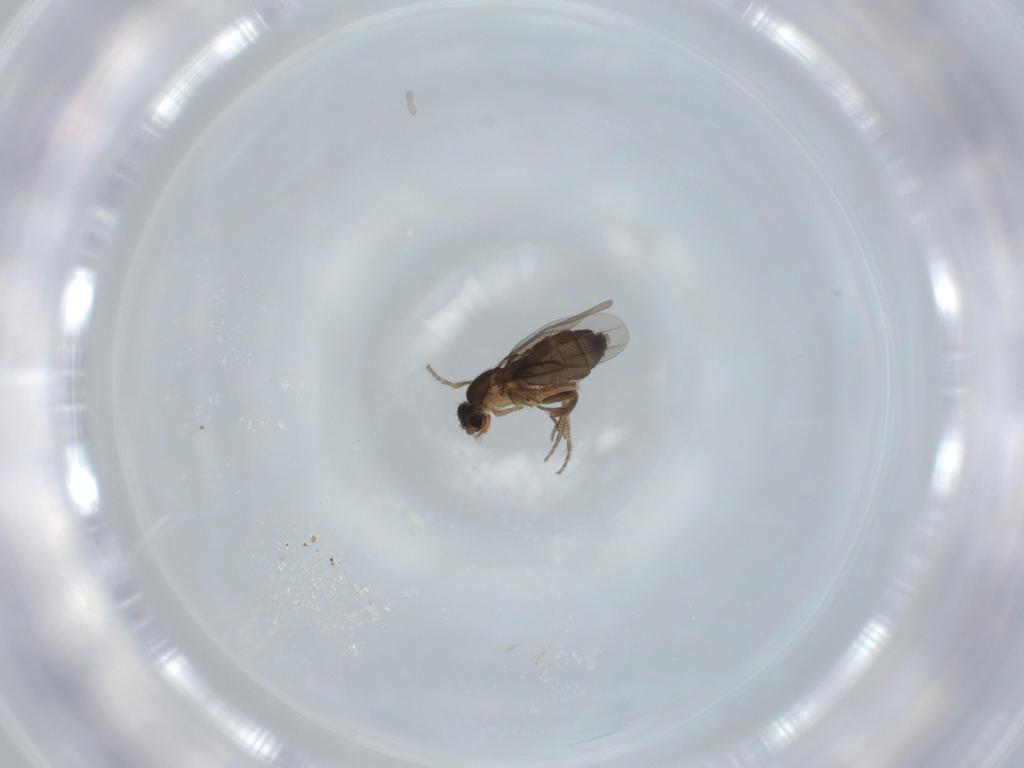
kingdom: Animalia
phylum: Arthropoda
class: Insecta
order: Diptera
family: Phoridae
